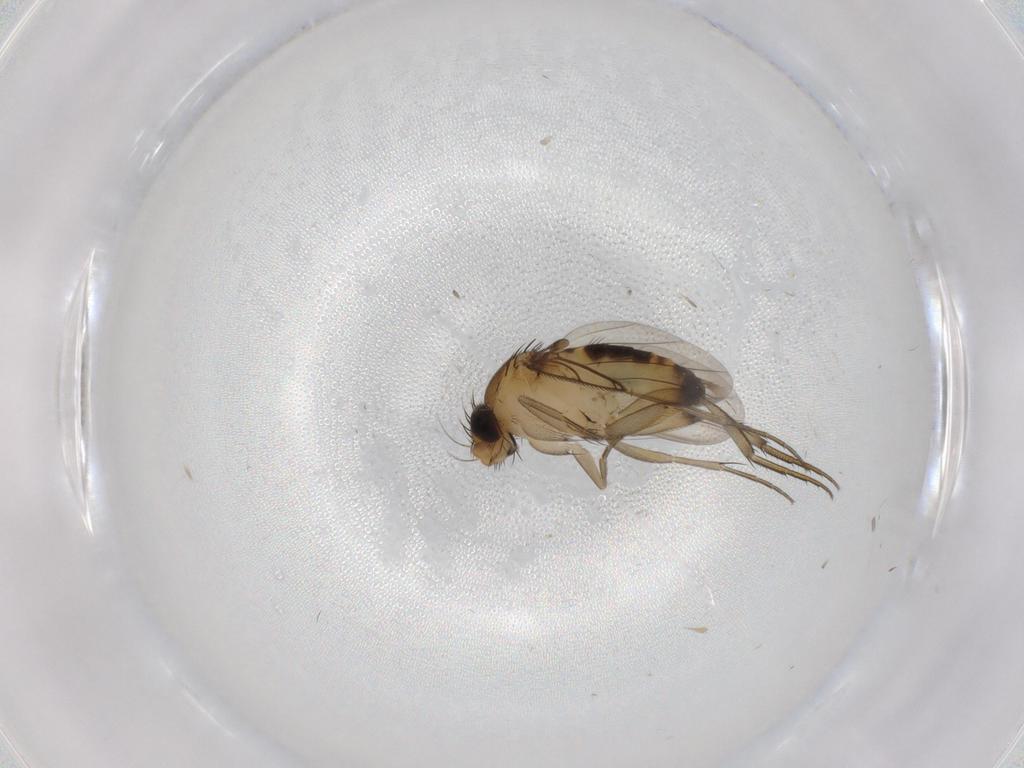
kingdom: Animalia
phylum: Arthropoda
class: Insecta
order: Diptera
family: Phoridae
